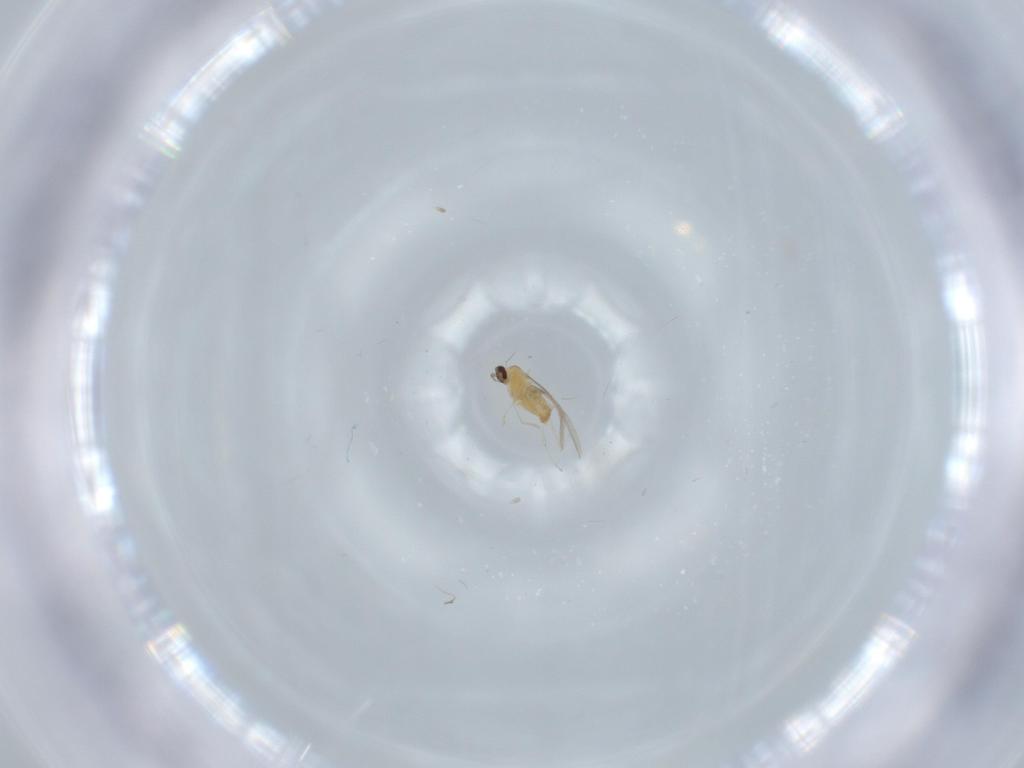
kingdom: Animalia
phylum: Arthropoda
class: Insecta
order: Diptera
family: Cecidomyiidae
